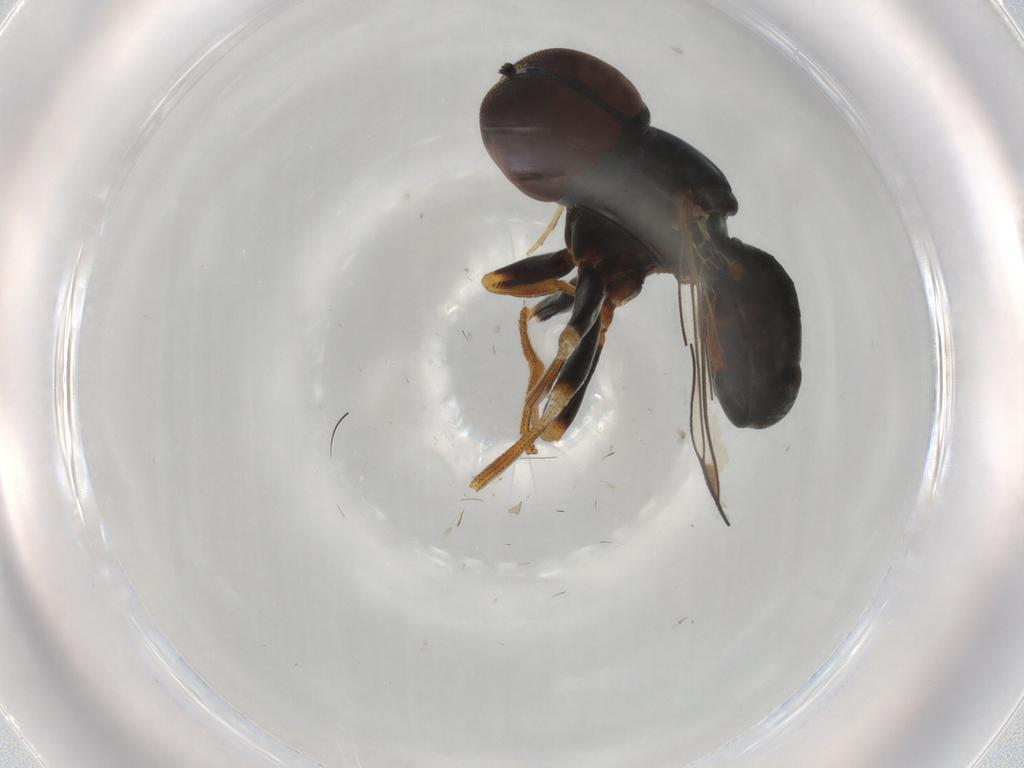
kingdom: Animalia
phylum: Arthropoda
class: Insecta
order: Diptera
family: Pipunculidae
